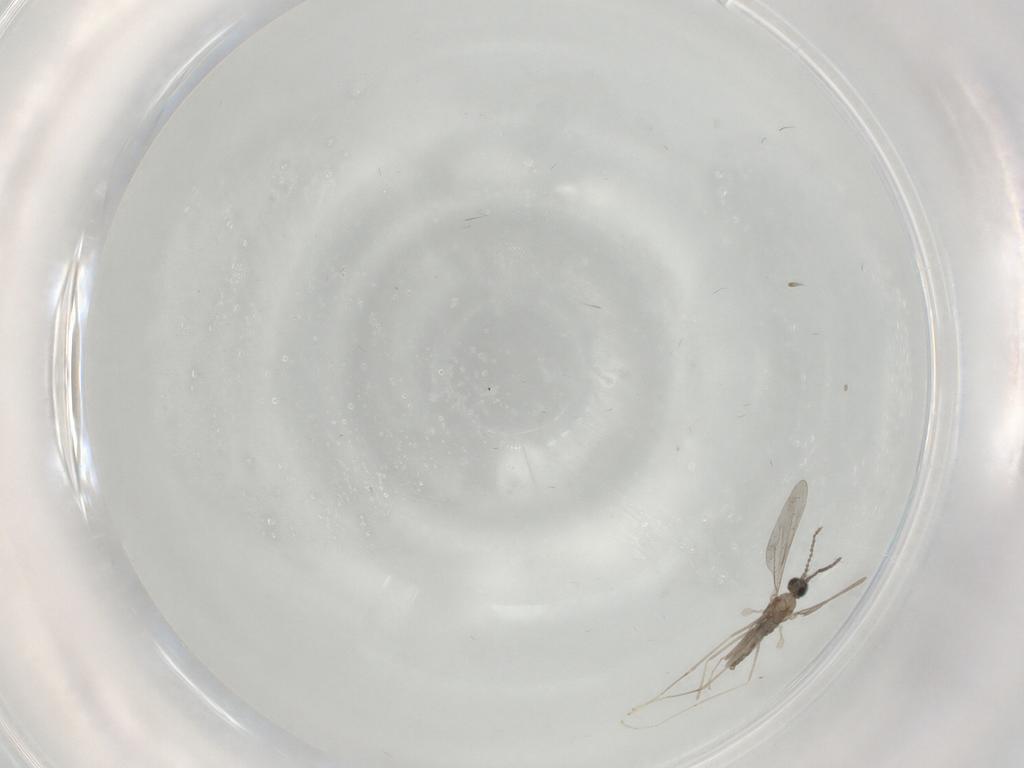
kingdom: Animalia
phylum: Arthropoda
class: Insecta
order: Diptera
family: Cecidomyiidae
